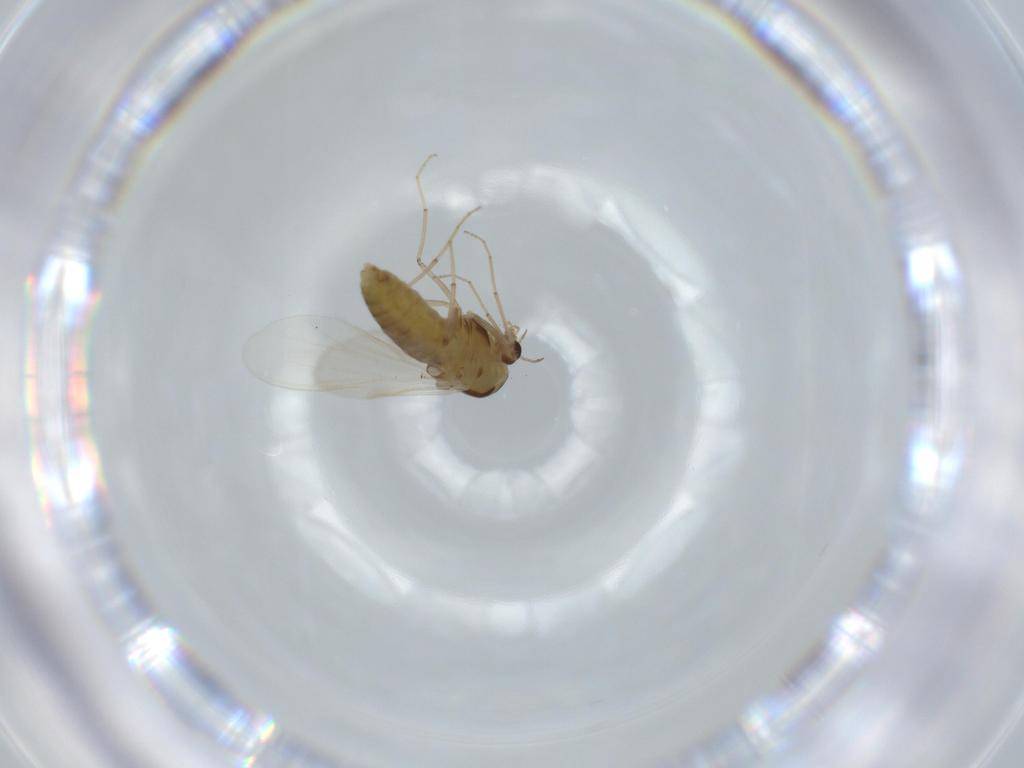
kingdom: Animalia
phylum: Arthropoda
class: Insecta
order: Diptera
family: Chironomidae
